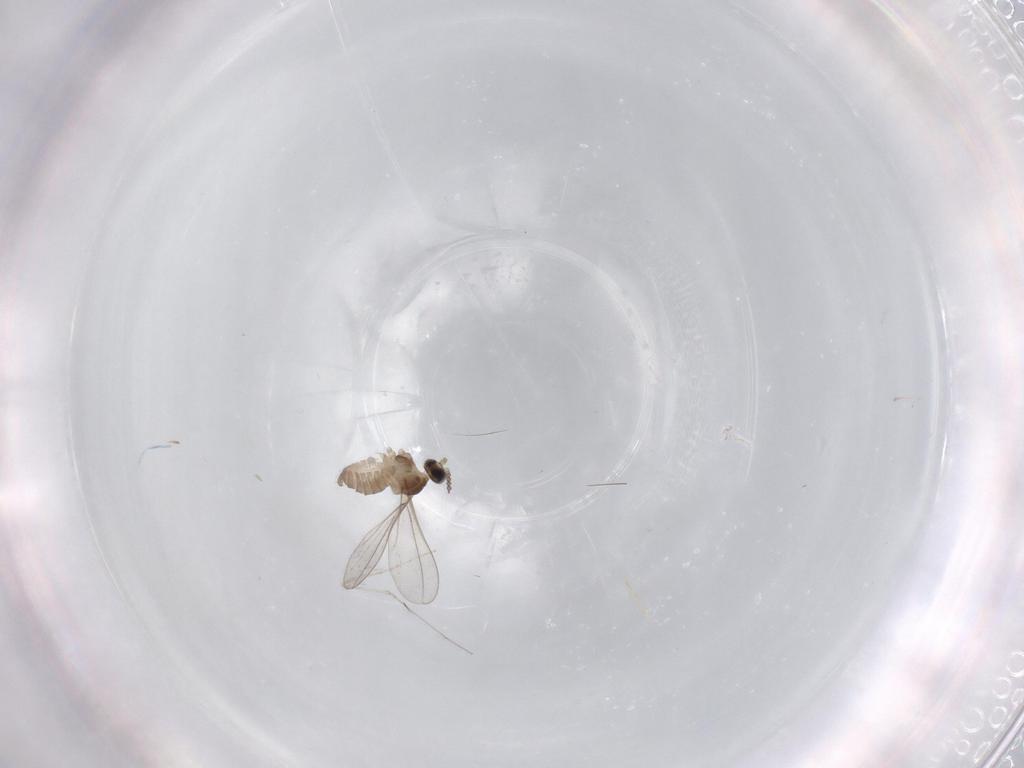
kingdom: Animalia
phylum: Arthropoda
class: Insecta
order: Diptera
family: Cecidomyiidae
